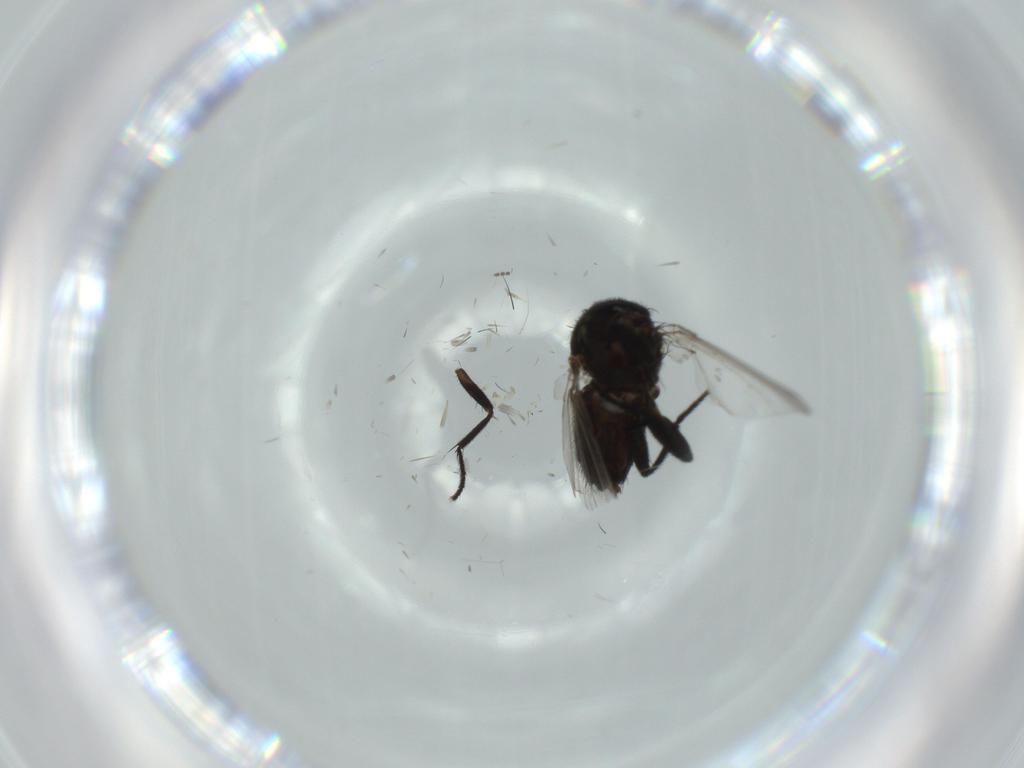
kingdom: Animalia
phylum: Arthropoda
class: Insecta
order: Diptera
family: Milichiidae
